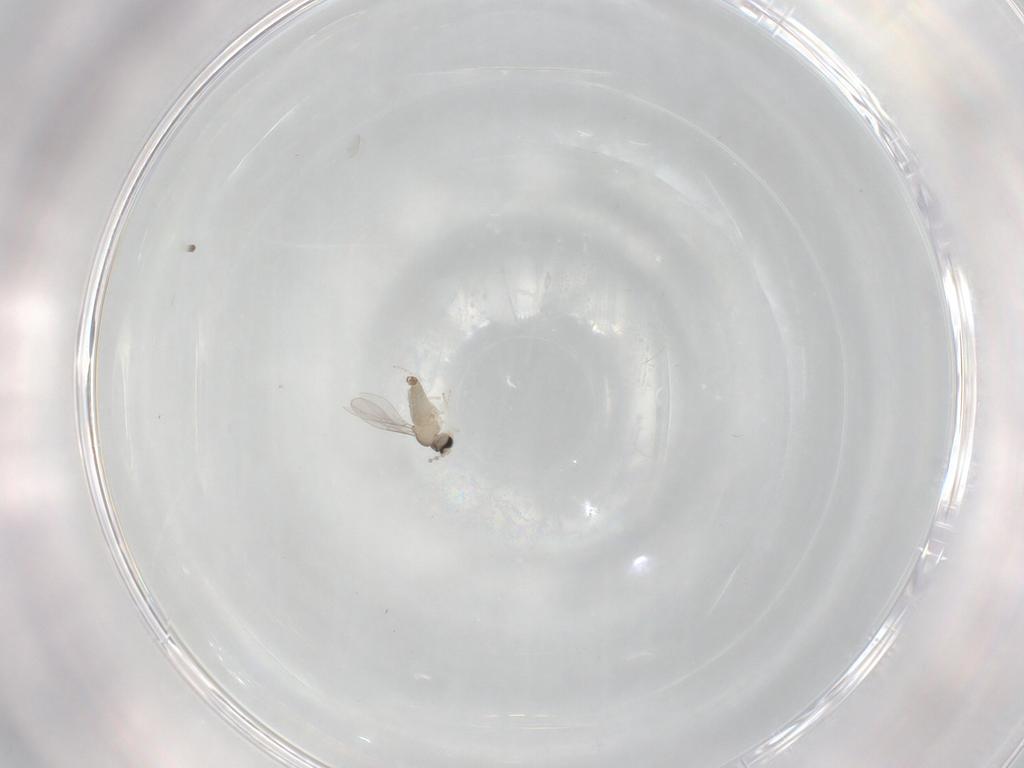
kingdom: Animalia
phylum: Arthropoda
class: Insecta
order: Diptera
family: Cecidomyiidae
